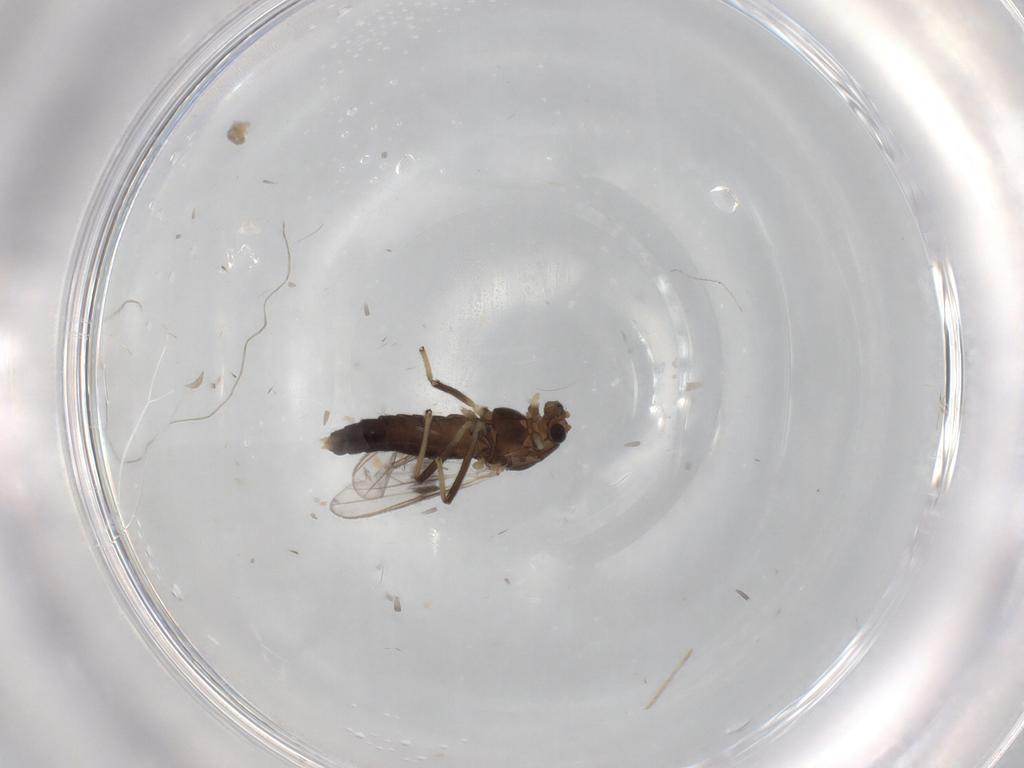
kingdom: Animalia
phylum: Arthropoda
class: Insecta
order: Diptera
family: Chironomidae
